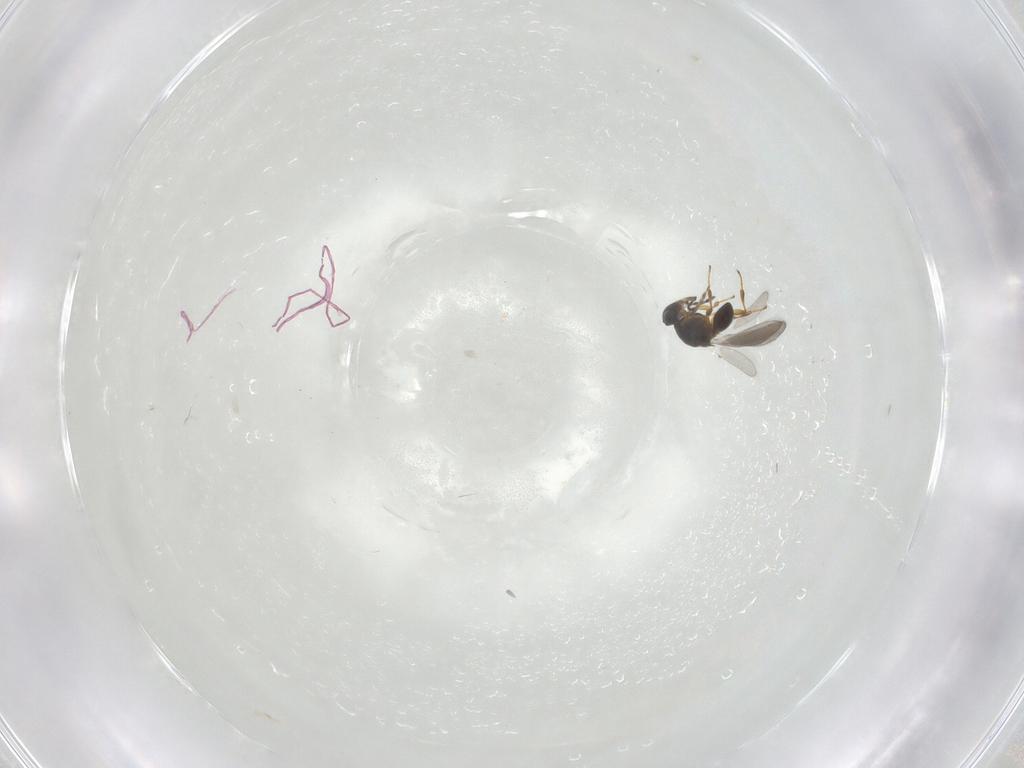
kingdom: Animalia
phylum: Arthropoda
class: Insecta
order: Hymenoptera
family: Platygastridae
